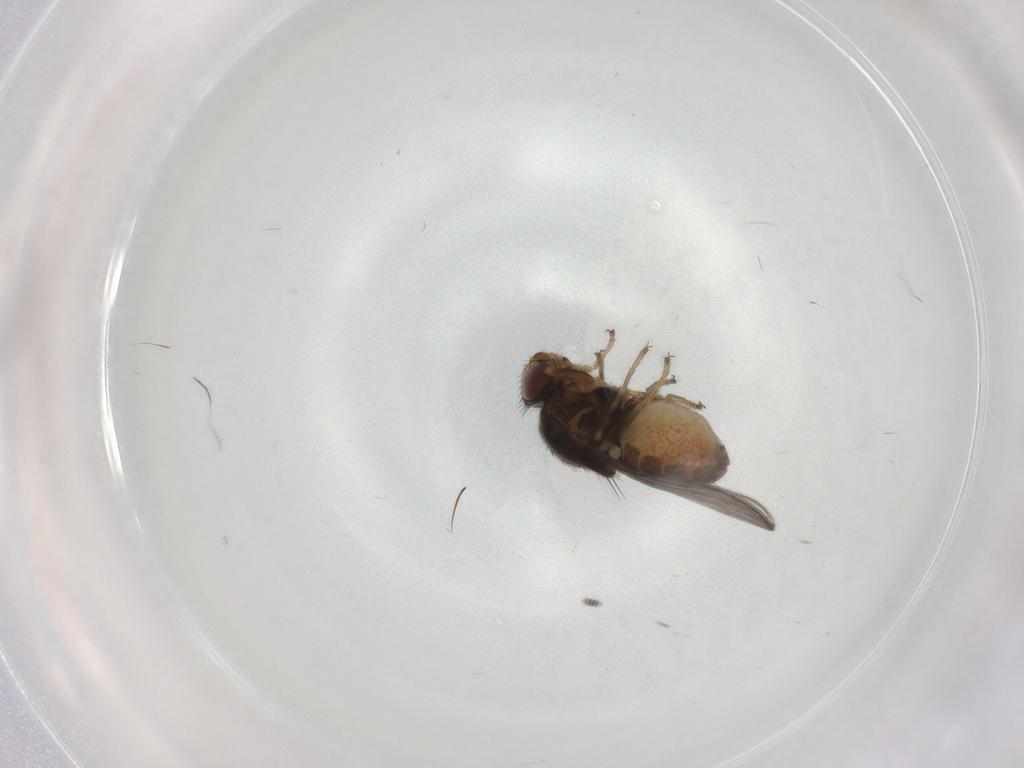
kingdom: Animalia
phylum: Arthropoda
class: Insecta
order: Diptera
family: Chloropidae
